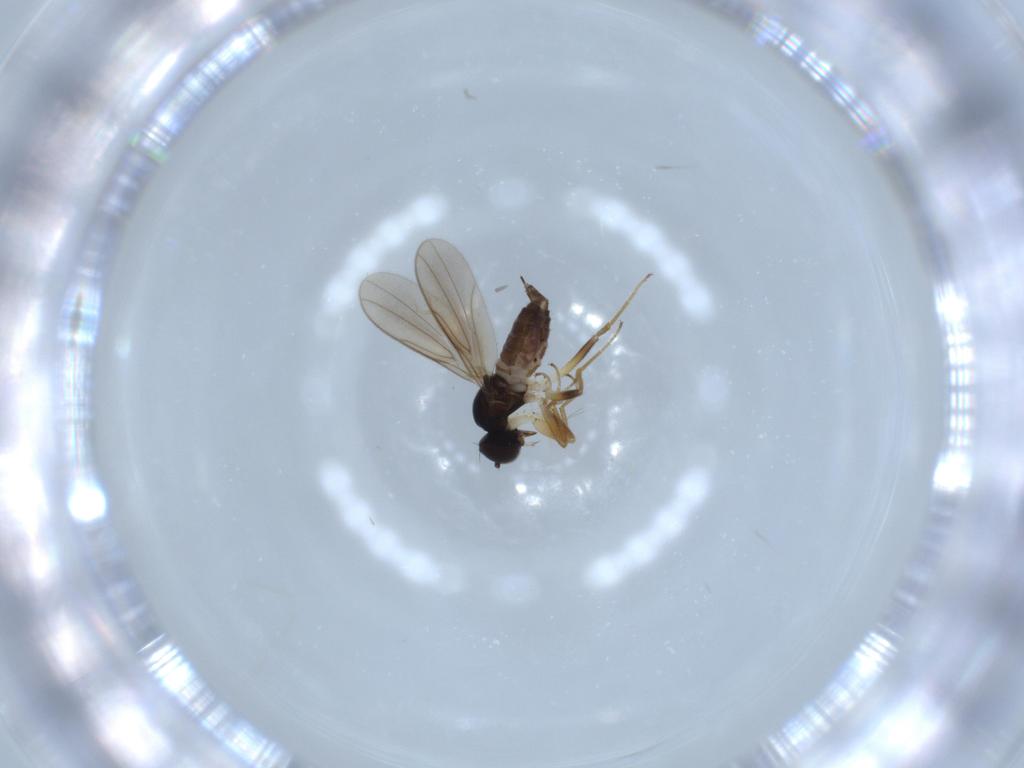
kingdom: Animalia
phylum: Arthropoda
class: Insecta
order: Diptera
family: Hybotidae
